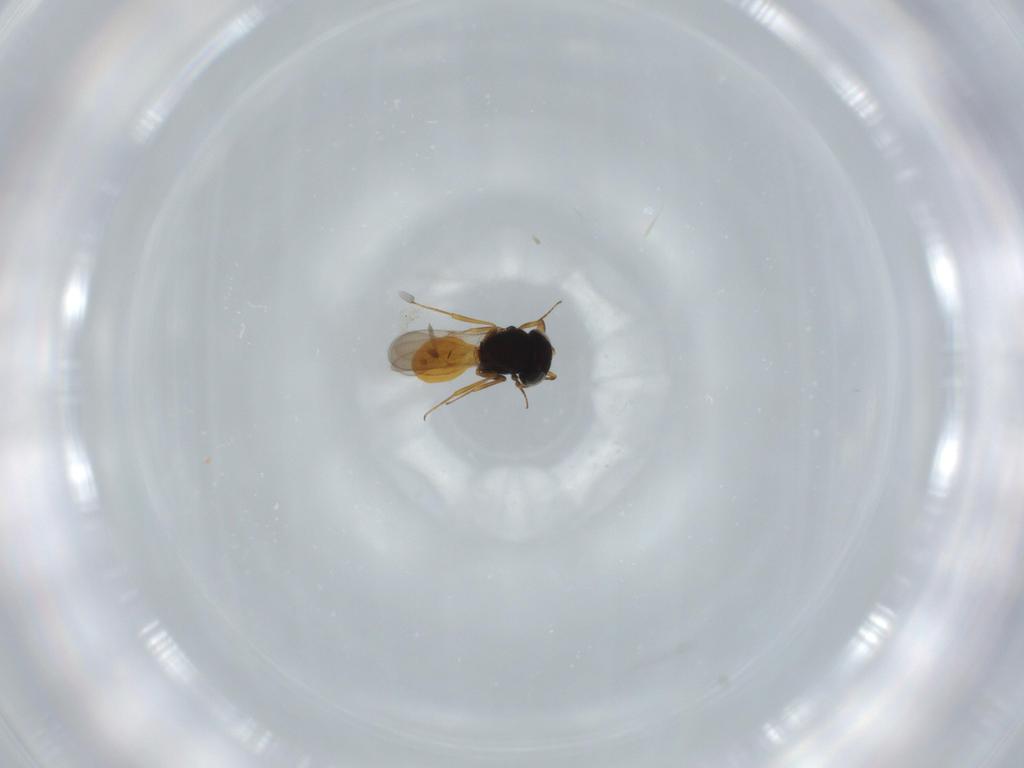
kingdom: Animalia
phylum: Arthropoda
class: Insecta
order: Hymenoptera
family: Scelionidae
